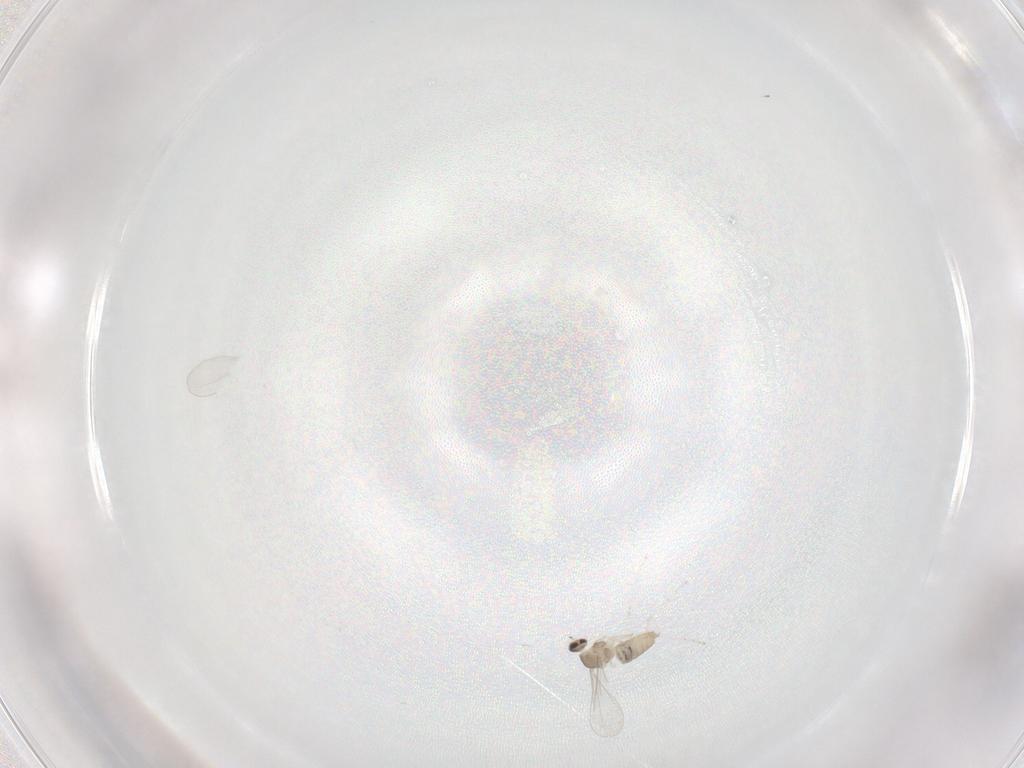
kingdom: Animalia
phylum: Arthropoda
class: Insecta
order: Diptera
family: Cecidomyiidae
